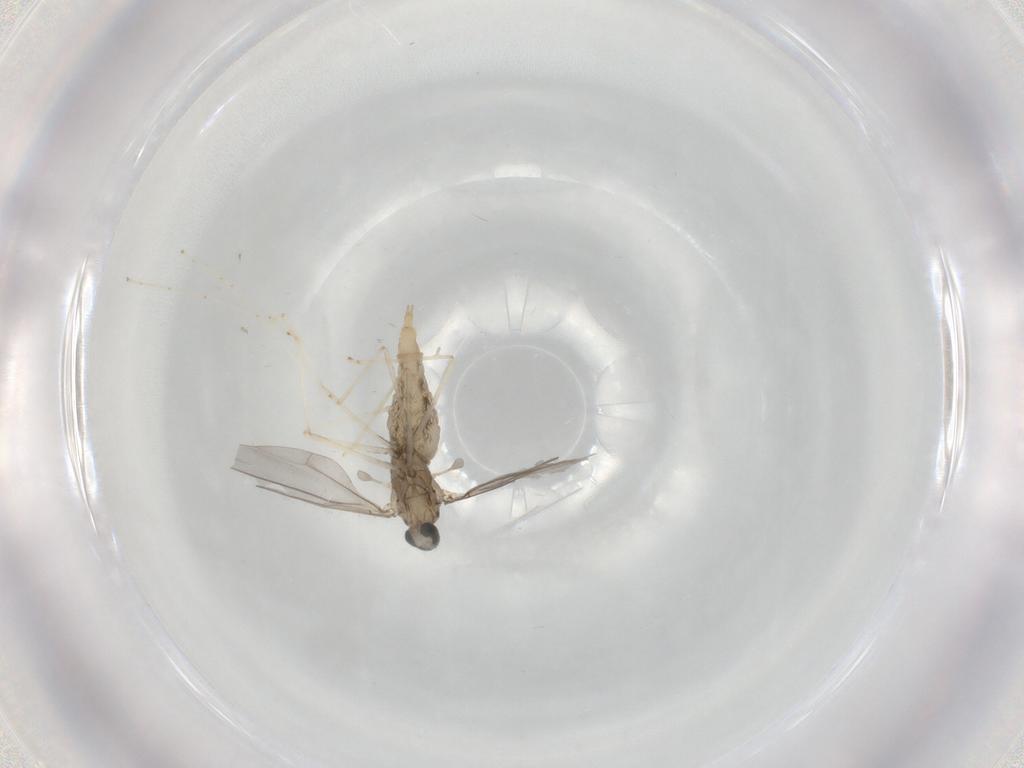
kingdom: Animalia
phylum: Arthropoda
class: Insecta
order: Diptera
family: Cecidomyiidae
